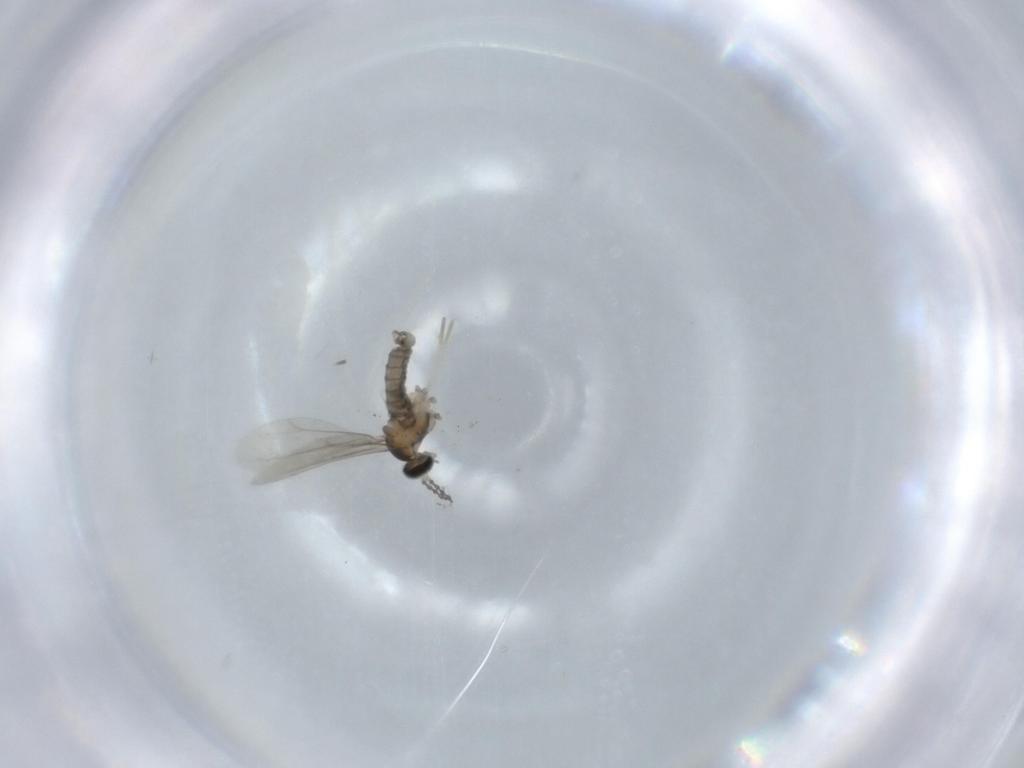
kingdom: Animalia
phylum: Arthropoda
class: Insecta
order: Diptera
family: Cecidomyiidae
